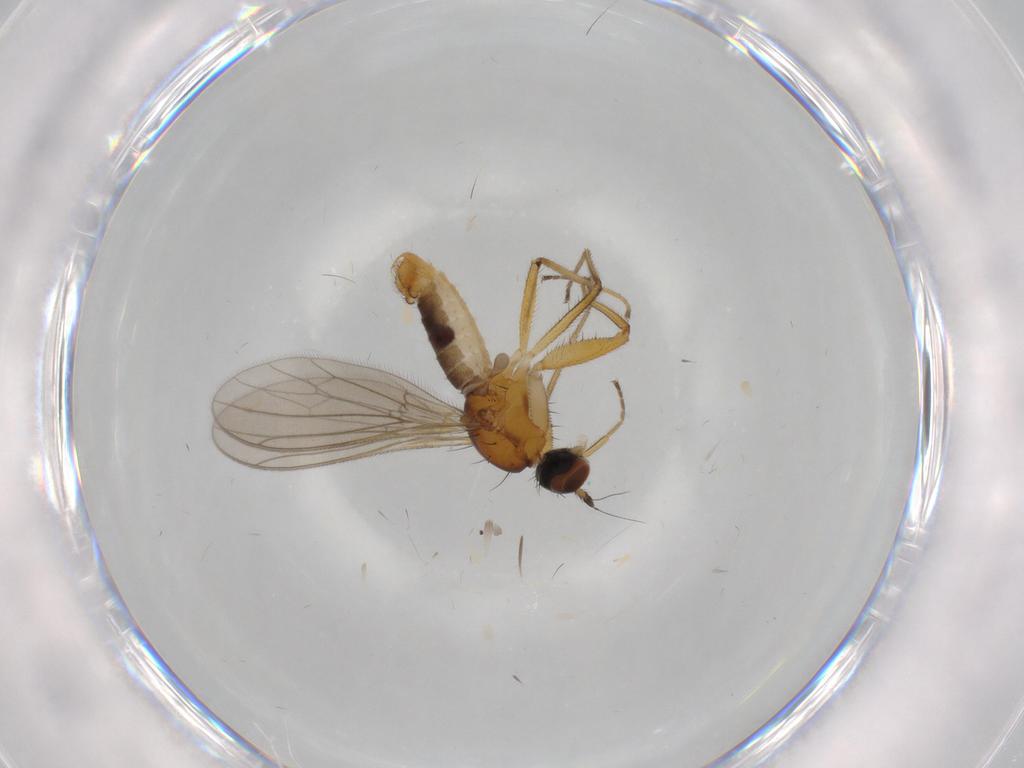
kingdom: Animalia
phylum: Arthropoda
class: Insecta
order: Diptera
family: Empididae
